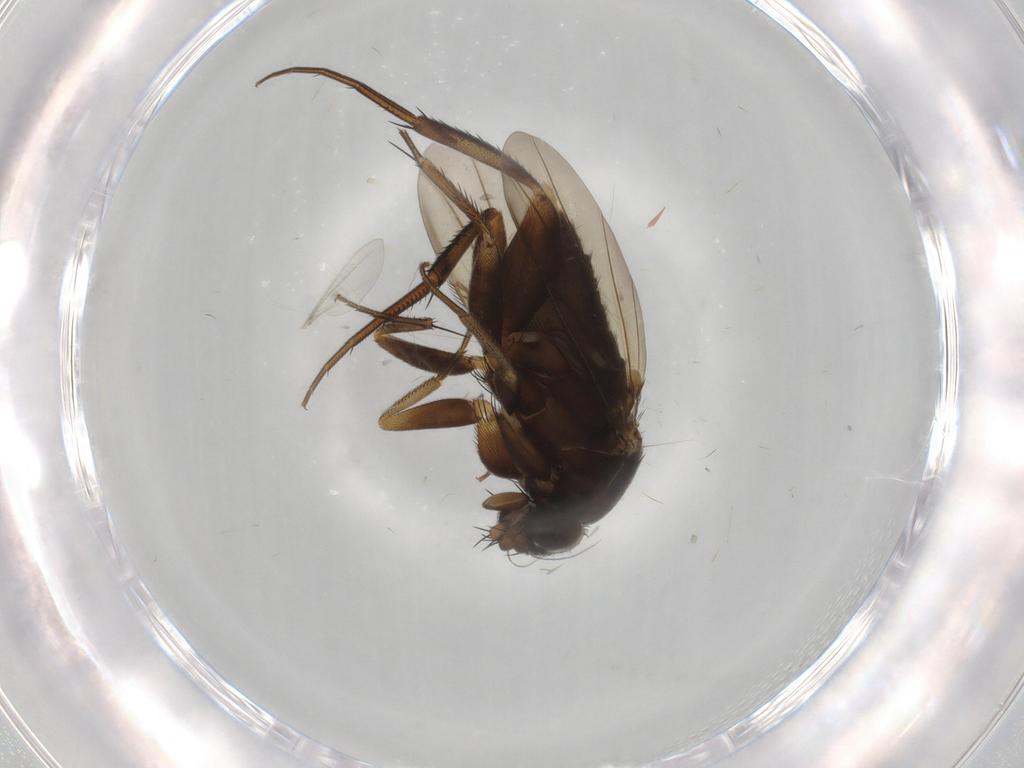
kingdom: Animalia
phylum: Arthropoda
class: Insecta
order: Diptera
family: Phoridae
